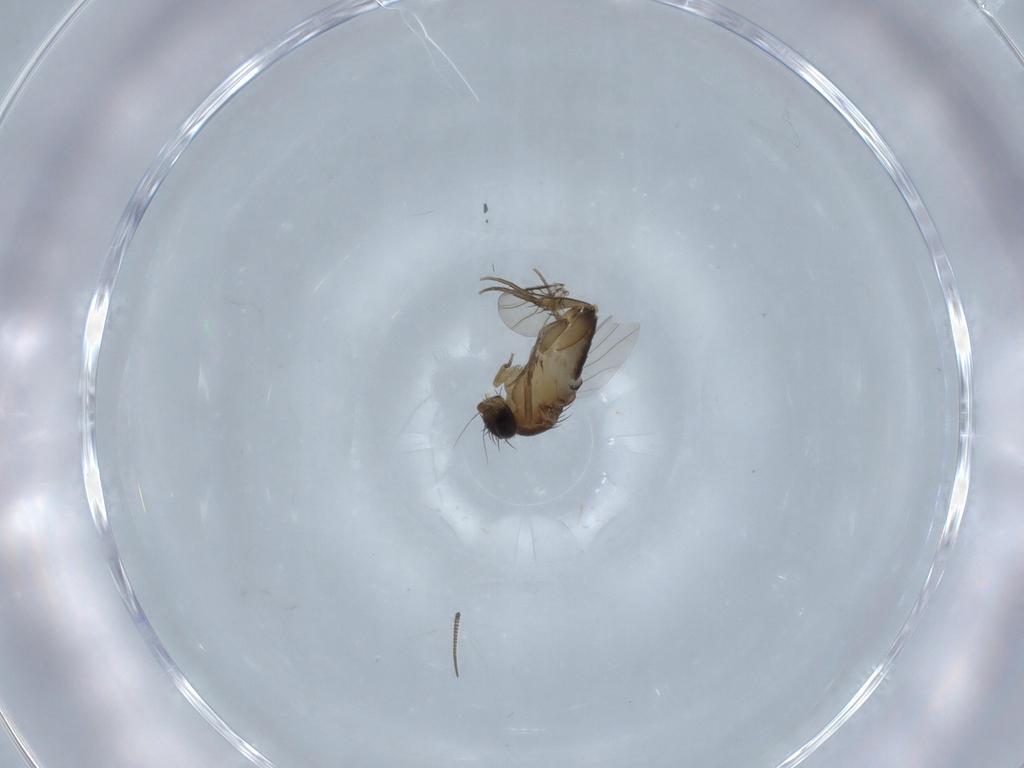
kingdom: Animalia
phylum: Arthropoda
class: Insecta
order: Diptera
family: Phoridae
